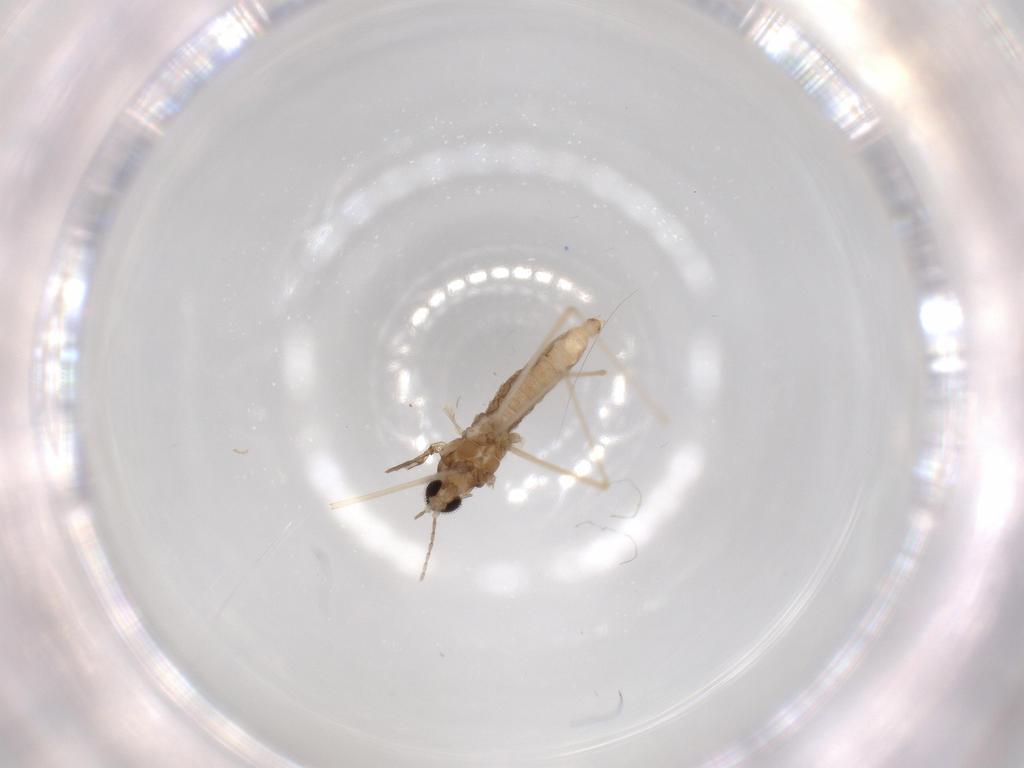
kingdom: Animalia
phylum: Arthropoda
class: Insecta
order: Diptera
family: Cecidomyiidae
